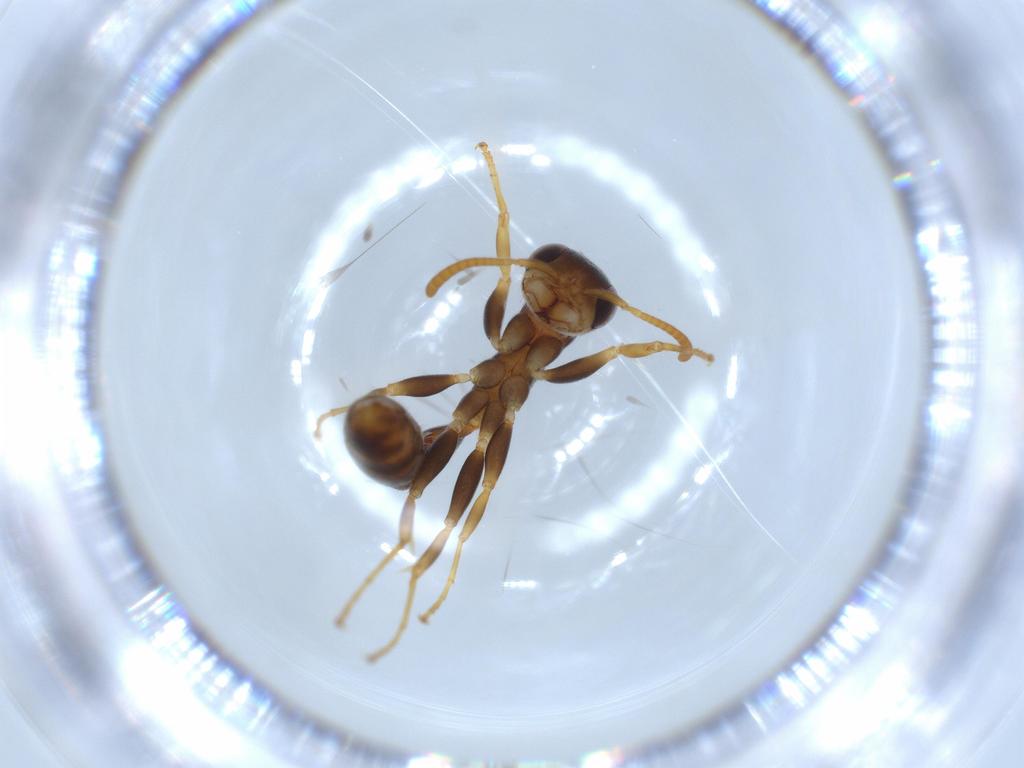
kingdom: Animalia
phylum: Arthropoda
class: Insecta
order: Hymenoptera
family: Formicidae
